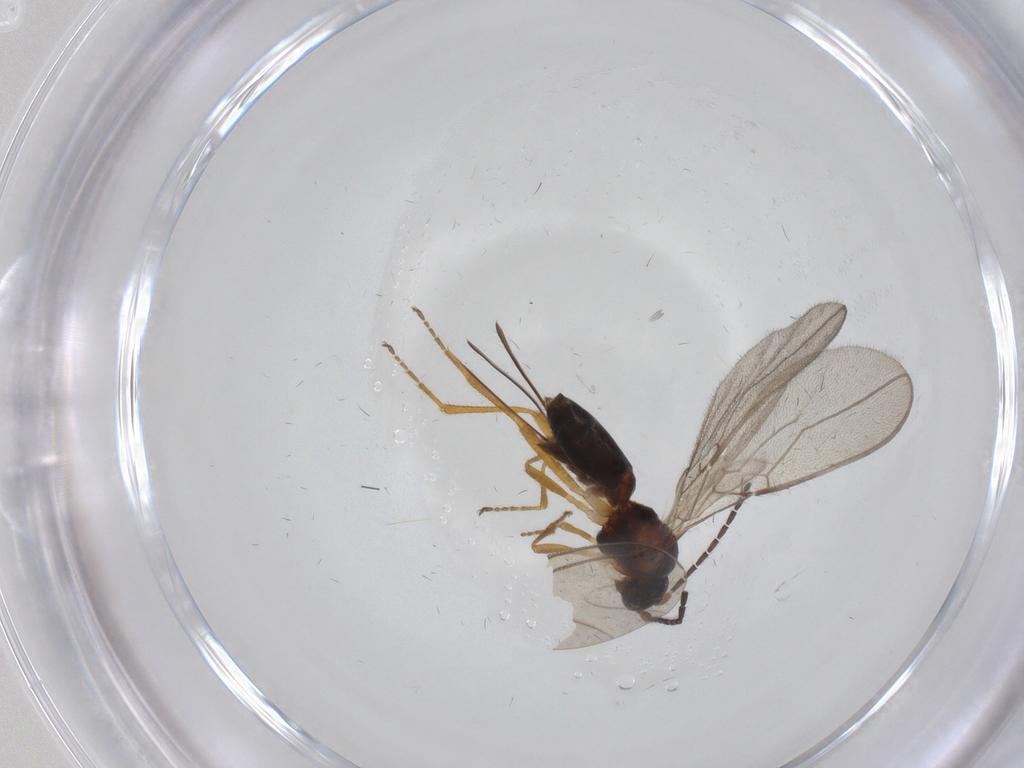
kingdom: Animalia
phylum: Arthropoda
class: Insecta
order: Hymenoptera
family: Braconidae
